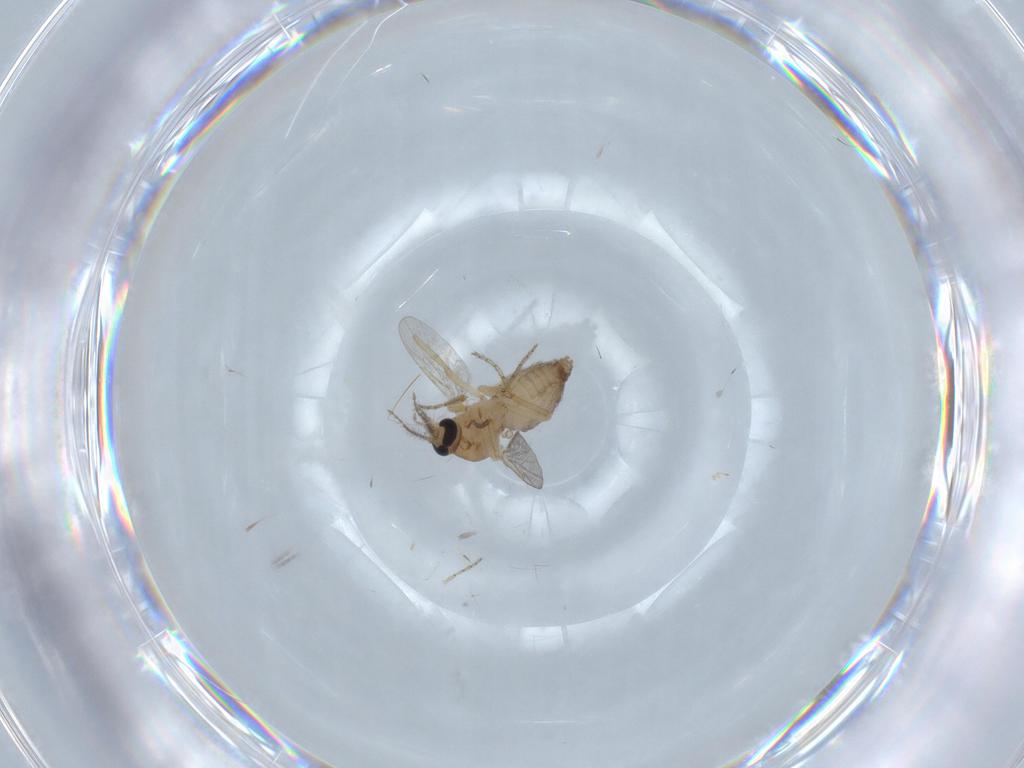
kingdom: Animalia
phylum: Arthropoda
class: Insecta
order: Diptera
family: Ceratopogonidae
